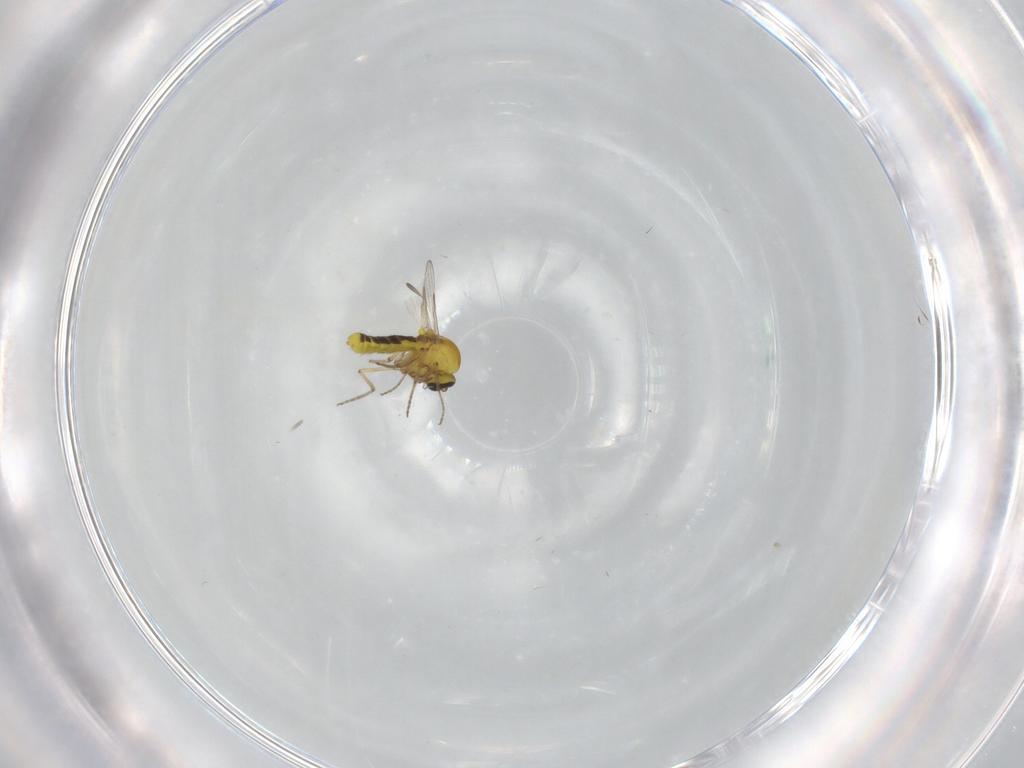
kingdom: Animalia
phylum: Arthropoda
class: Insecta
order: Diptera
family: Ceratopogonidae
